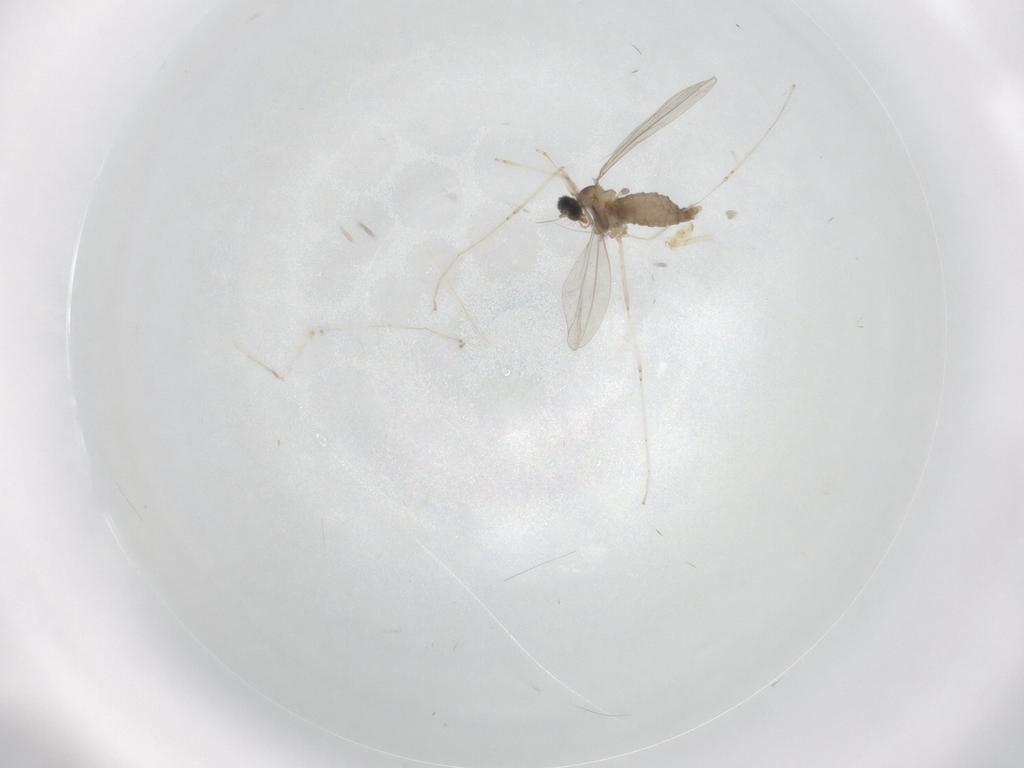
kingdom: Animalia
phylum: Arthropoda
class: Insecta
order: Diptera
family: Cecidomyiidae
